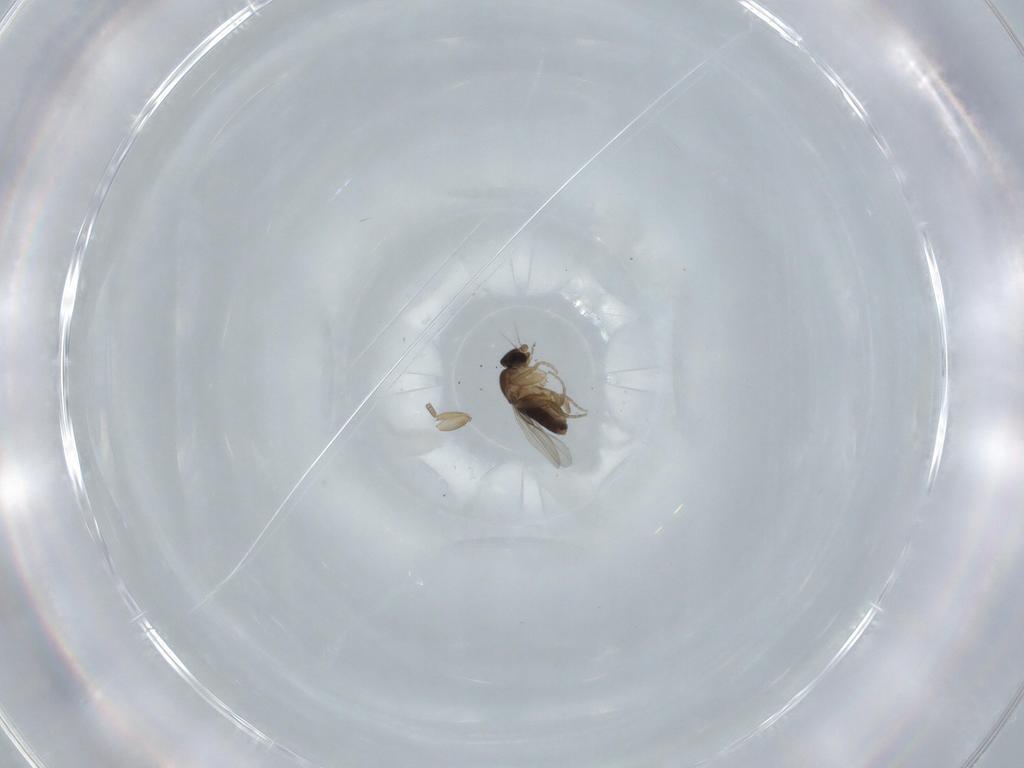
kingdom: Animalia
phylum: Arthropoda
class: Insecta
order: Diptera
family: Phoridae
